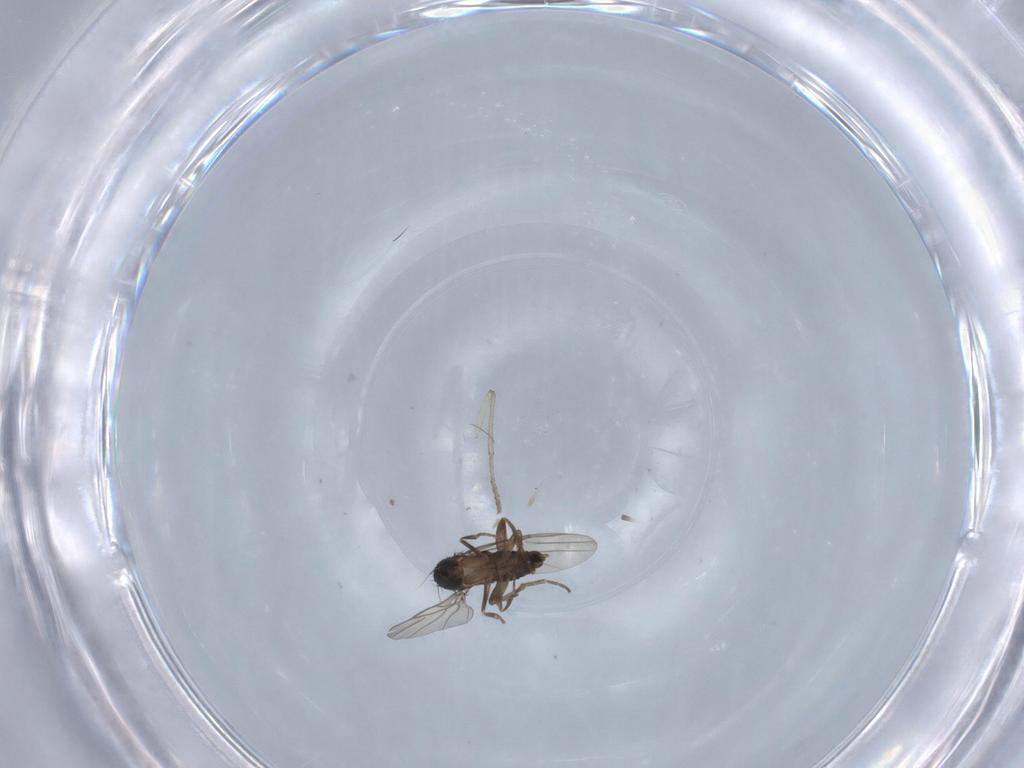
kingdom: Animalia
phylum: Arthropoda
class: Insecta
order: Diptera
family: Phoridae
